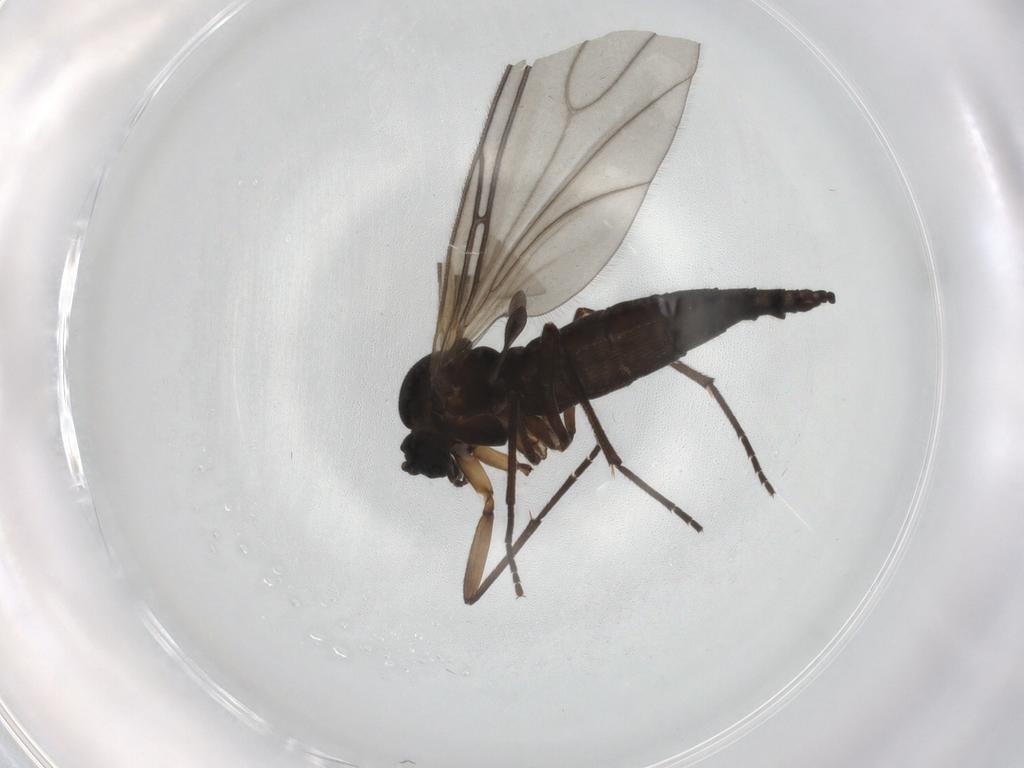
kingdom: Animalia
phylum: Arthropoda
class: Insecta
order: Diptera
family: Sciaridae
